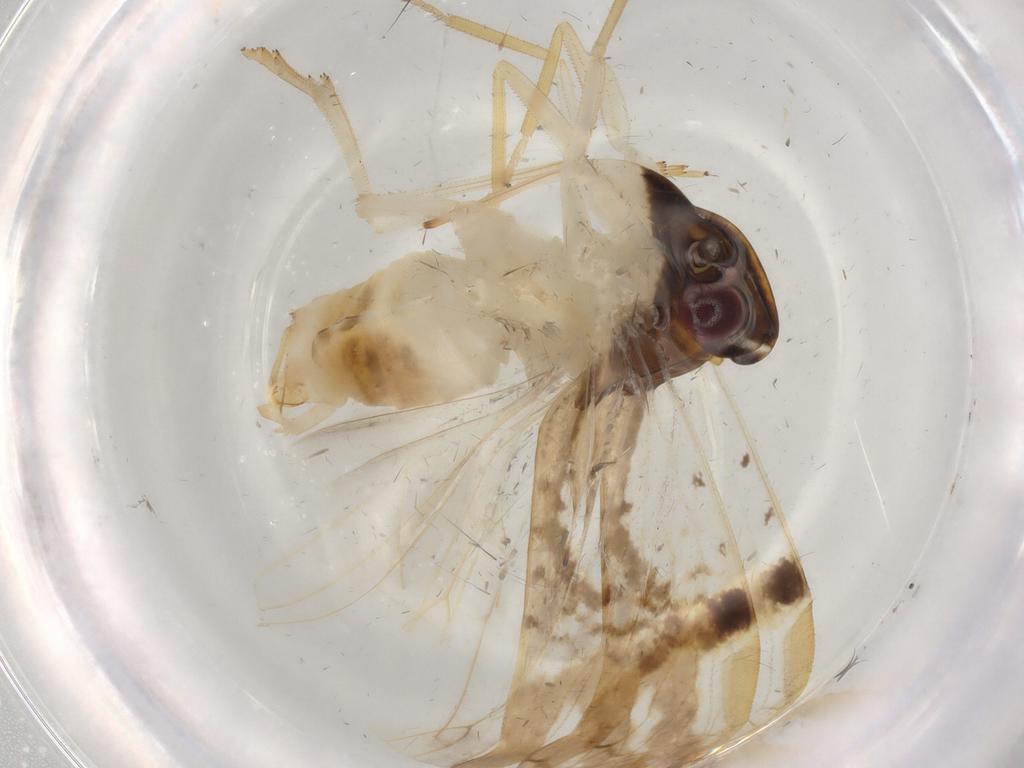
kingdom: Animalia
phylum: Arthropoda
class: Insecta
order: Hemiptera
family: Cixiidae
